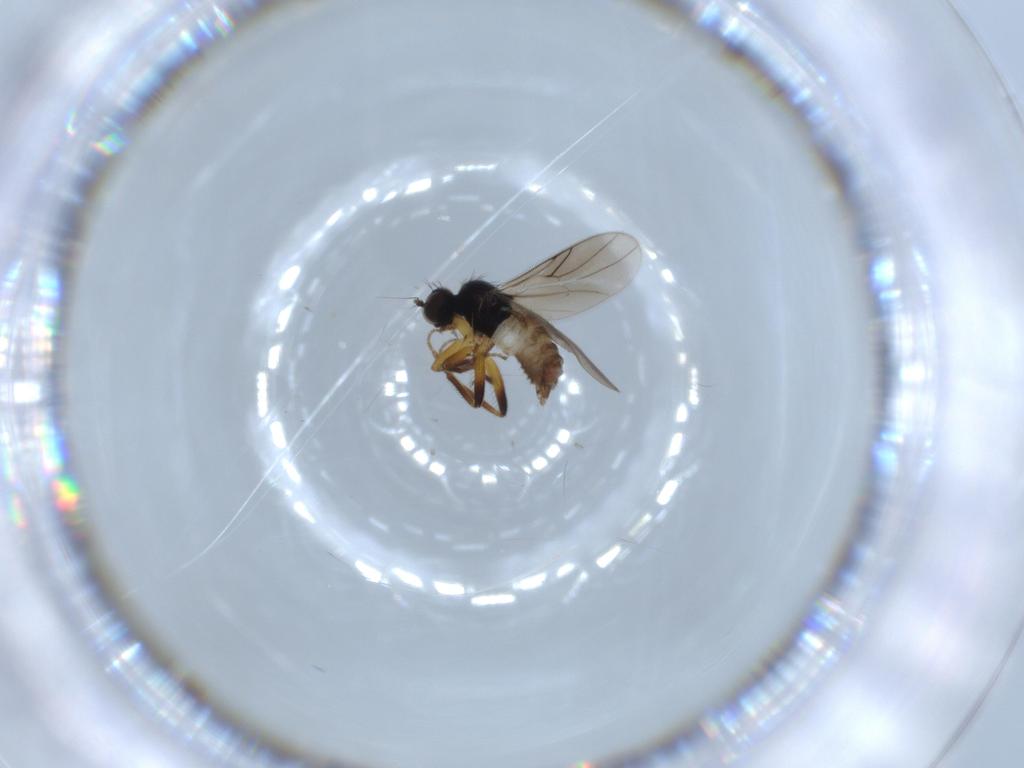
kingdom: Animalia
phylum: Arthropoda
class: Insecta
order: Diptera
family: Hybotidae
